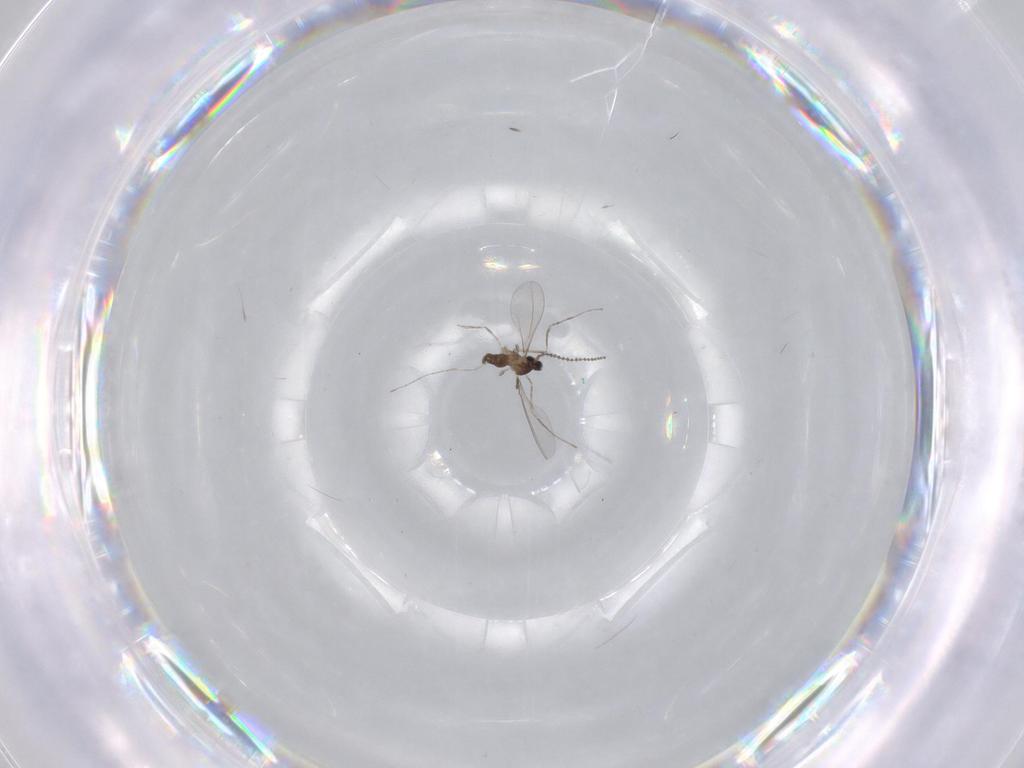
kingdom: Animalia
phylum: Arthropoda
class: Insecta
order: Diptera
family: Cecidomyiidae
